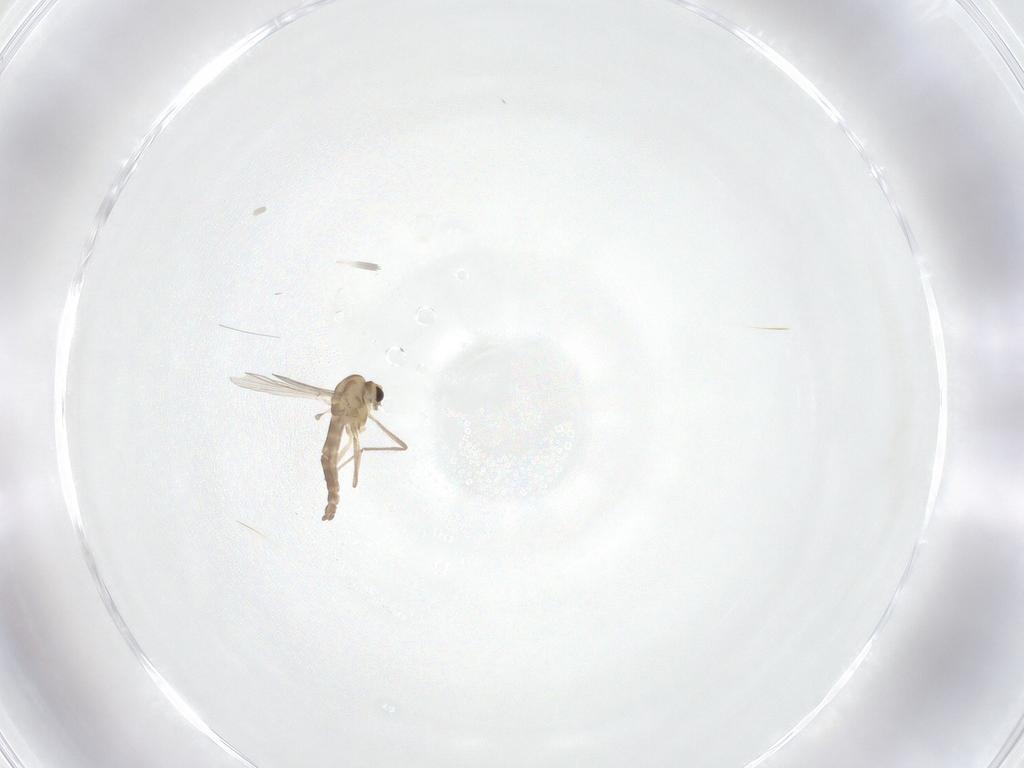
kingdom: Animalia
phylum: Arthropoda
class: Insecta
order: Diptera
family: Chironomidae
